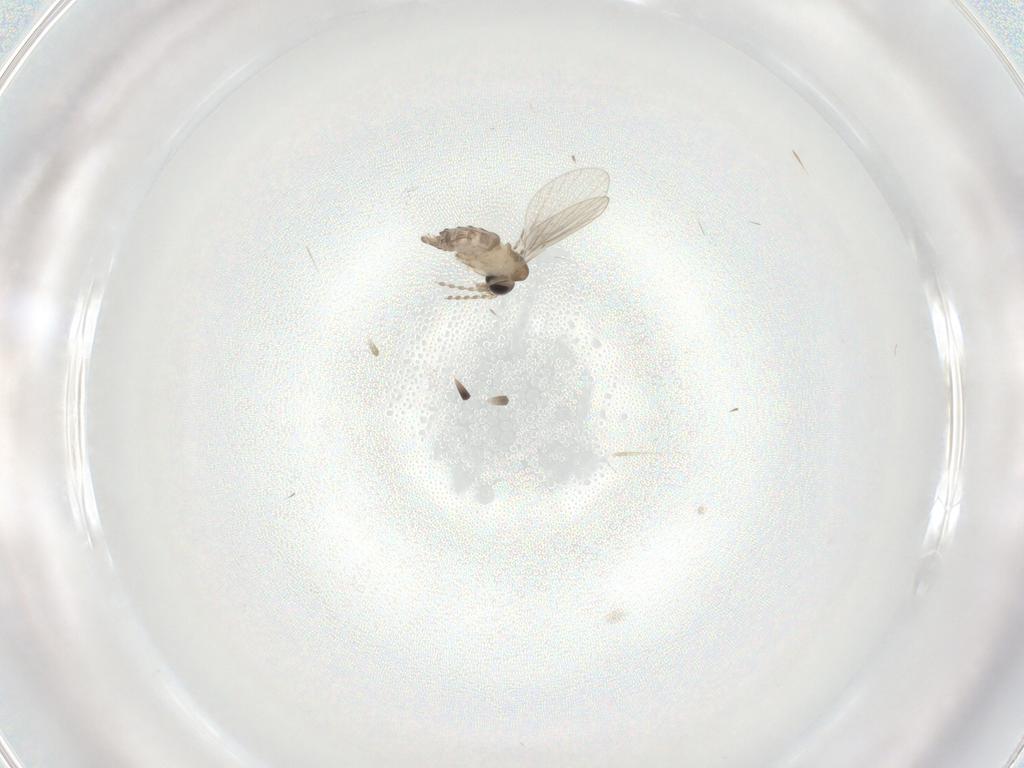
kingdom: Animalia
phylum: Arthropoda
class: Insecta
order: Diptera
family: Cecidomyiidae
